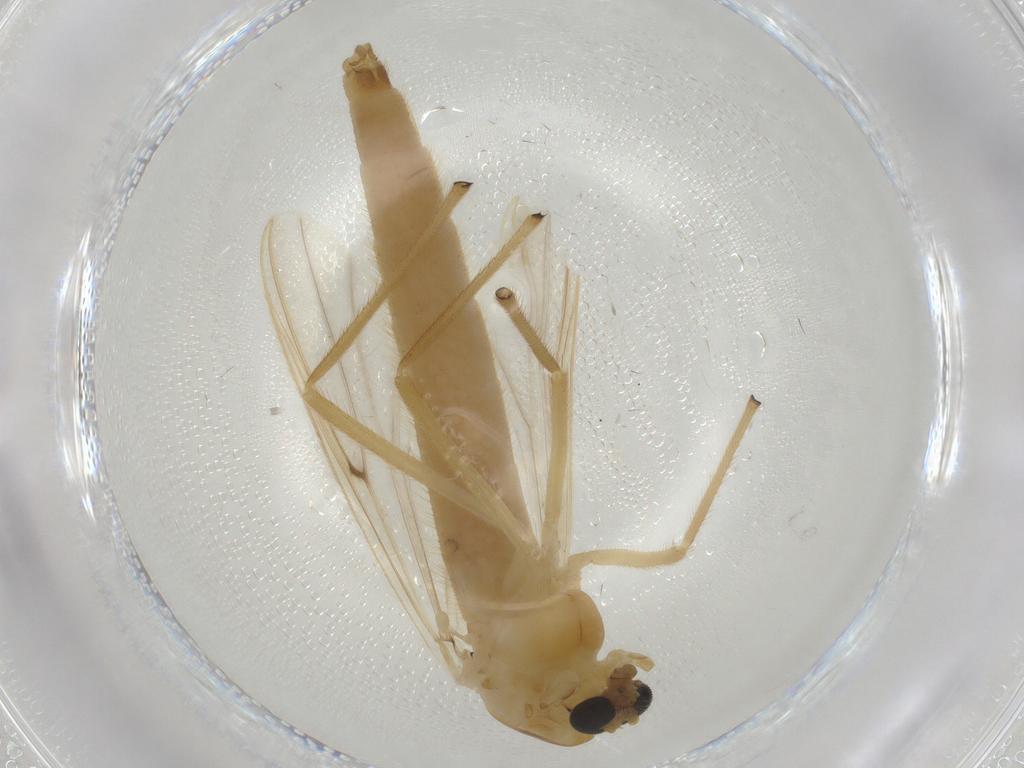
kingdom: Animalia
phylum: Arthropoda
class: Insecta
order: Diptera
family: Chironomidae
